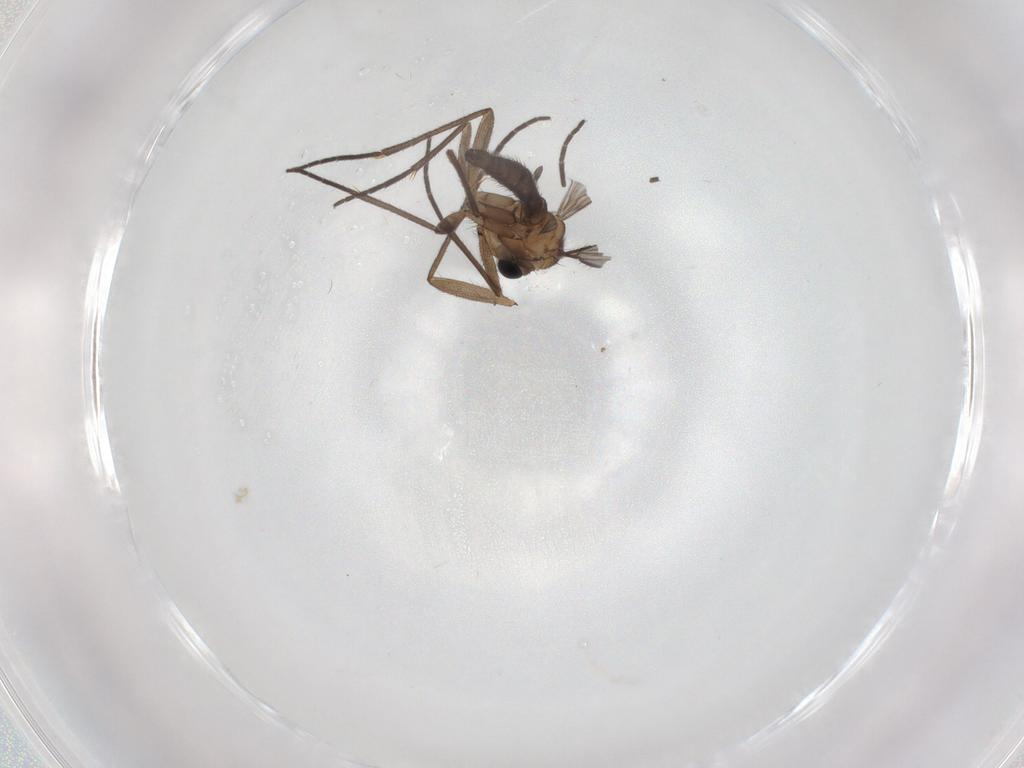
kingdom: Animalia
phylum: Arthropoda
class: Insecta
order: Diptera
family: Sciaridae
